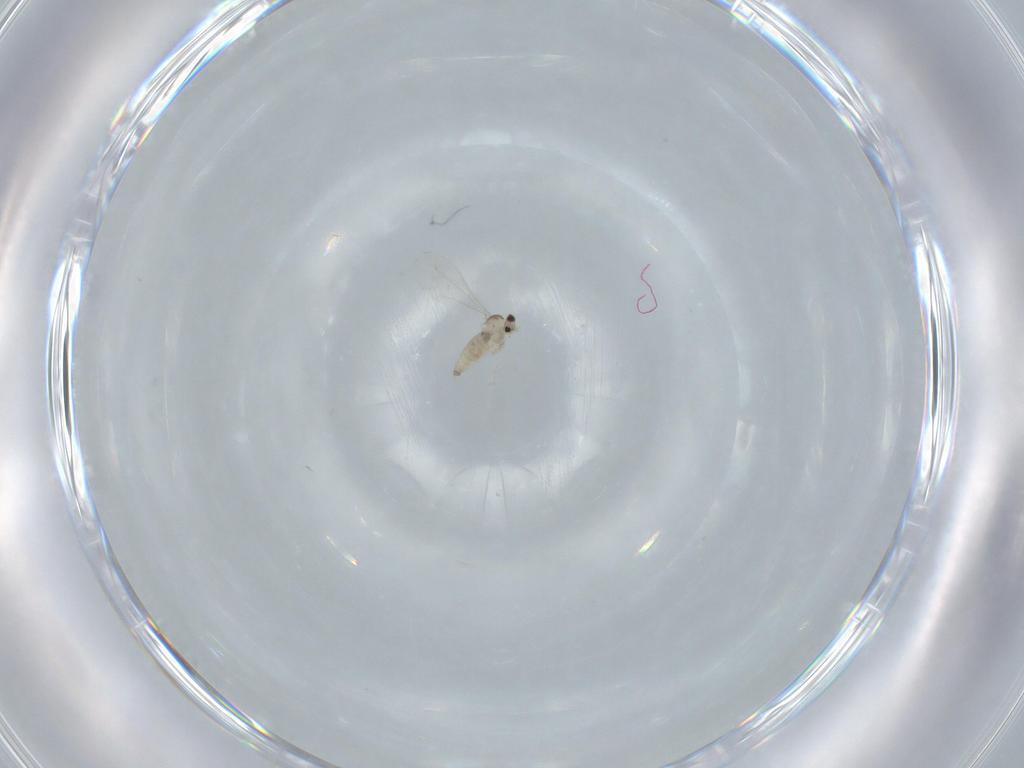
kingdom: Animalia
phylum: Arthropoda
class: Insecta
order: Diptera
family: Cecidomyiidae
